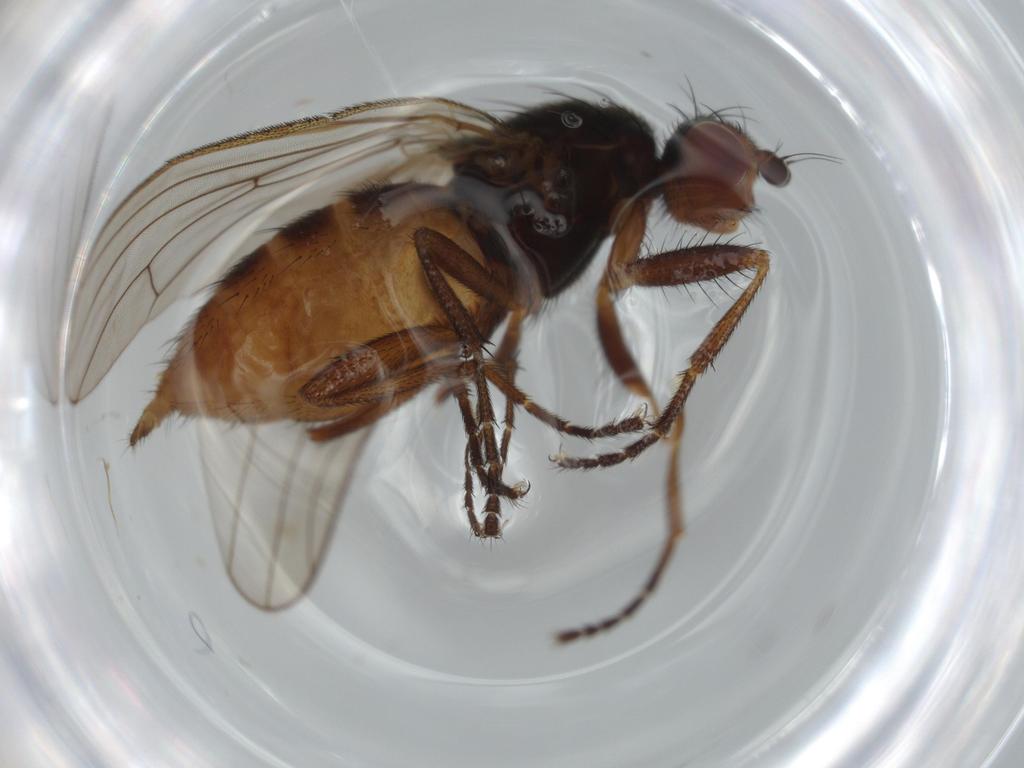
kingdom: Animalia
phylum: Arthropoda
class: Insecta
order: Diptera
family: Heleomyzidae
